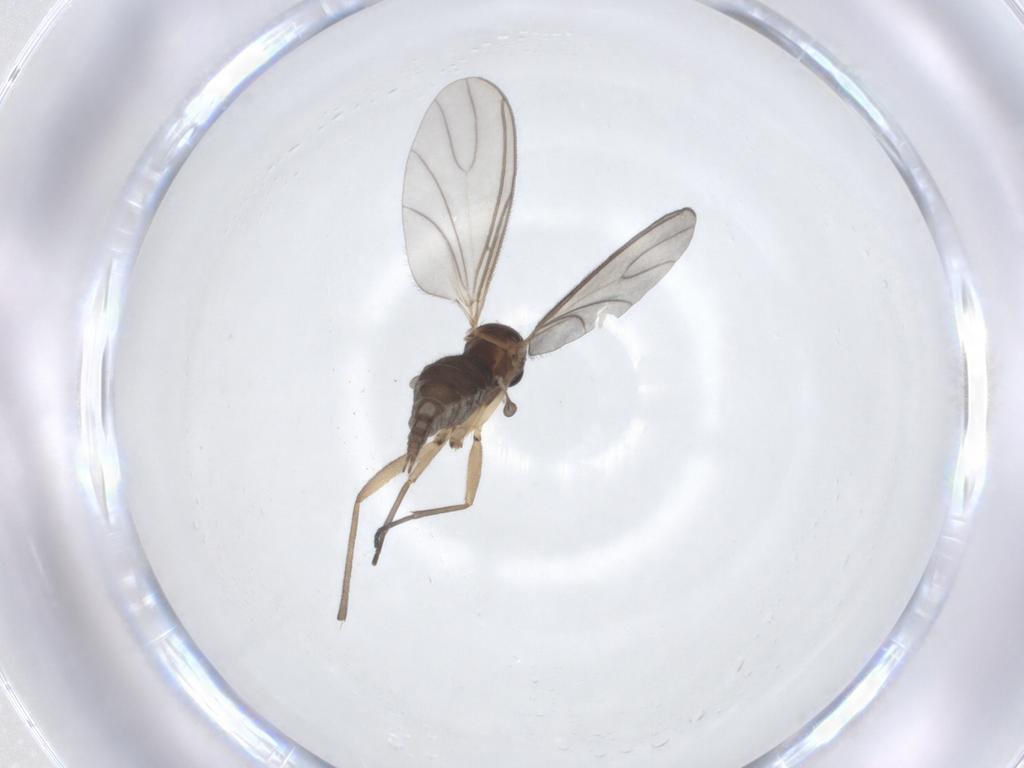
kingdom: Animalia
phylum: Arthropoda
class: Insecta
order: Diptera
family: Sciaridae
